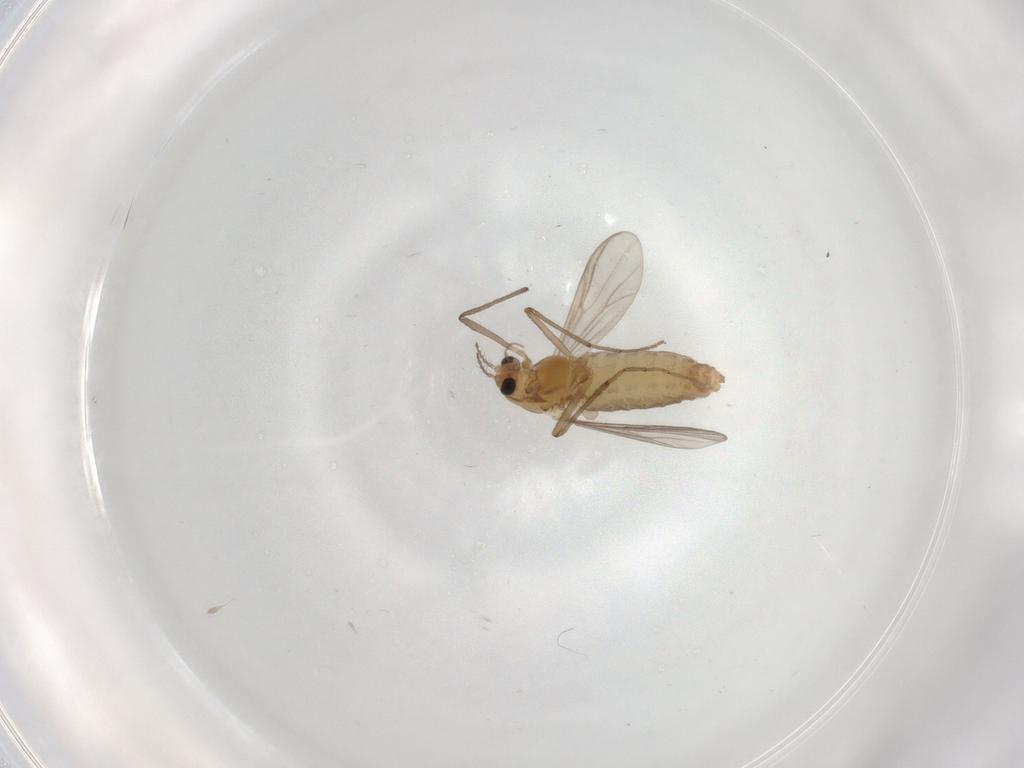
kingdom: Animalia
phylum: Arthropoda
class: Insecta
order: Diptera
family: Chironomidae
